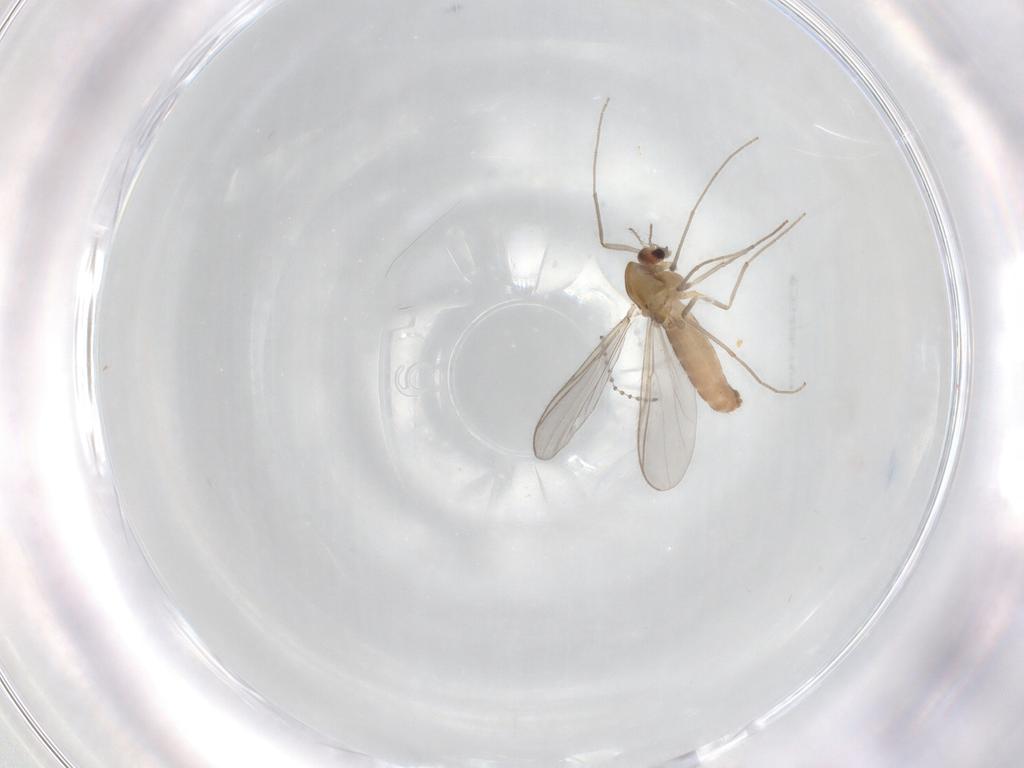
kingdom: Animalia
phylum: Arthropoda
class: Insecta
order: Diptera
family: Chironomidae
